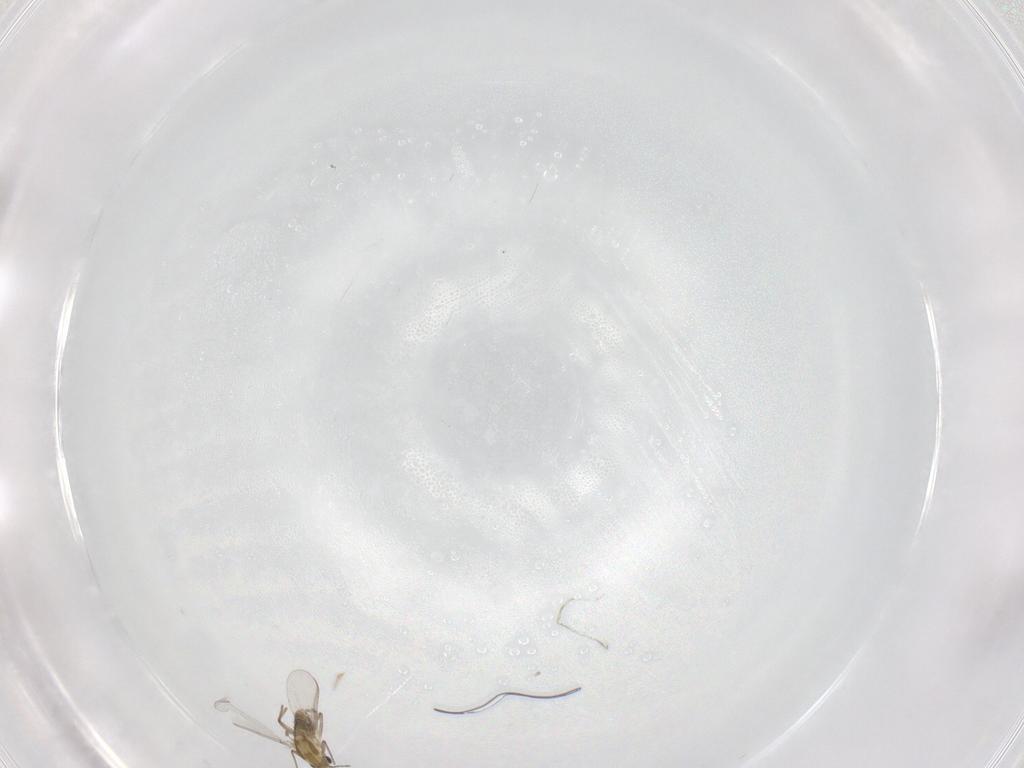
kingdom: Animalia
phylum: Arthropoda
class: Insecta
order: Diptera
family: Chironomidae
